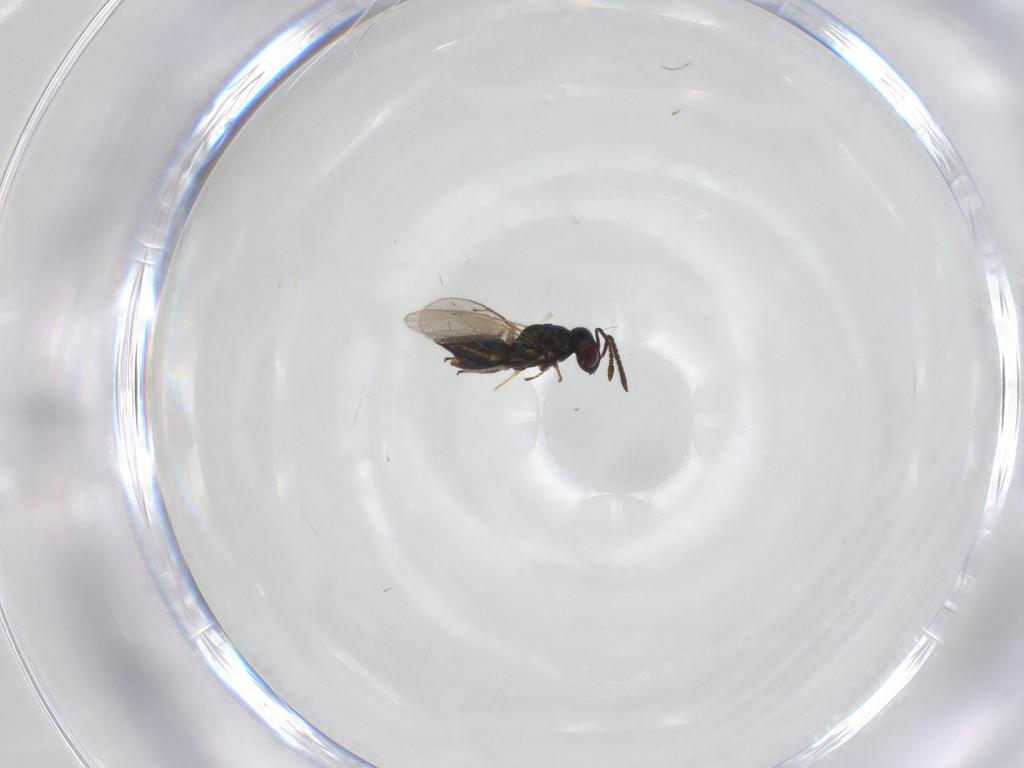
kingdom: Animalia
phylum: Arthropoda
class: Insecta
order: Hymenoptera
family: Pteromalidae
